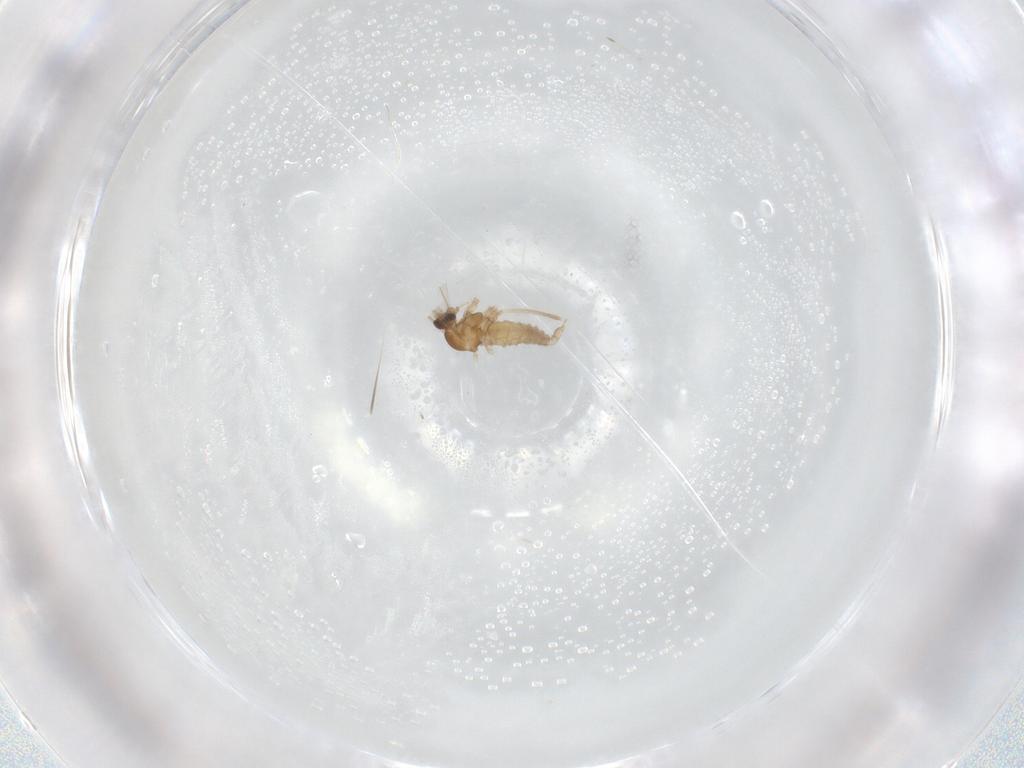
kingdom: Animalia
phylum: Arthropoda
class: Insecta
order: Diptera
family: Cecidomyiidae
